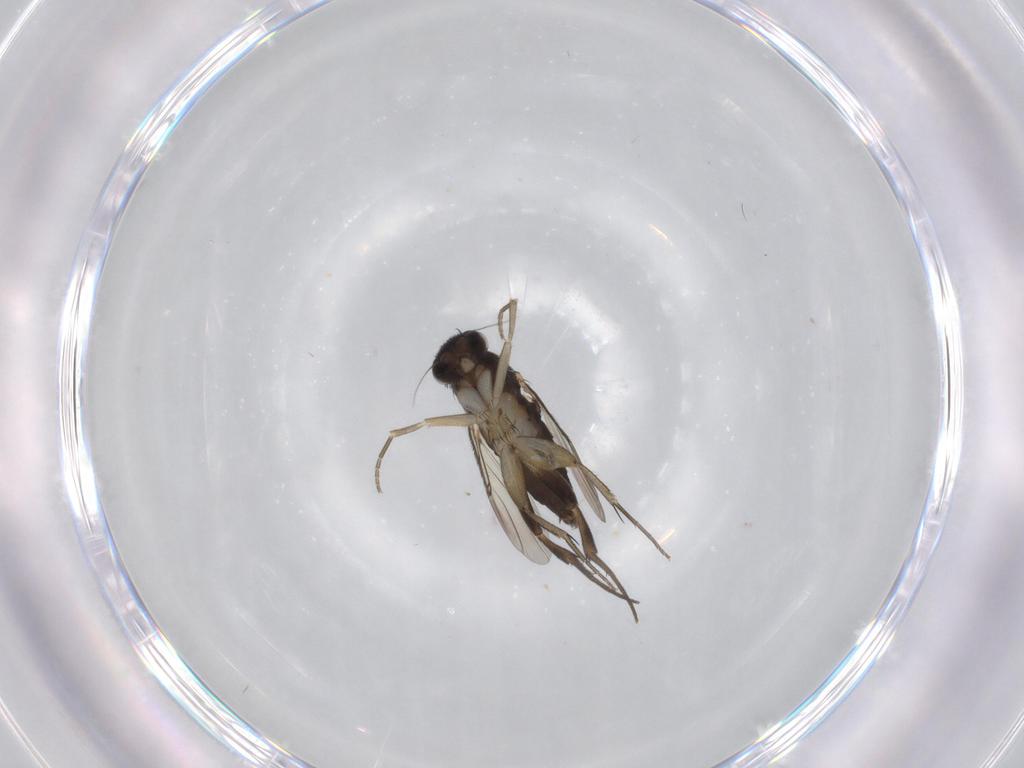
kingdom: Animalia
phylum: Arthropoda
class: Insecta
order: Diptera
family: Phoridae
